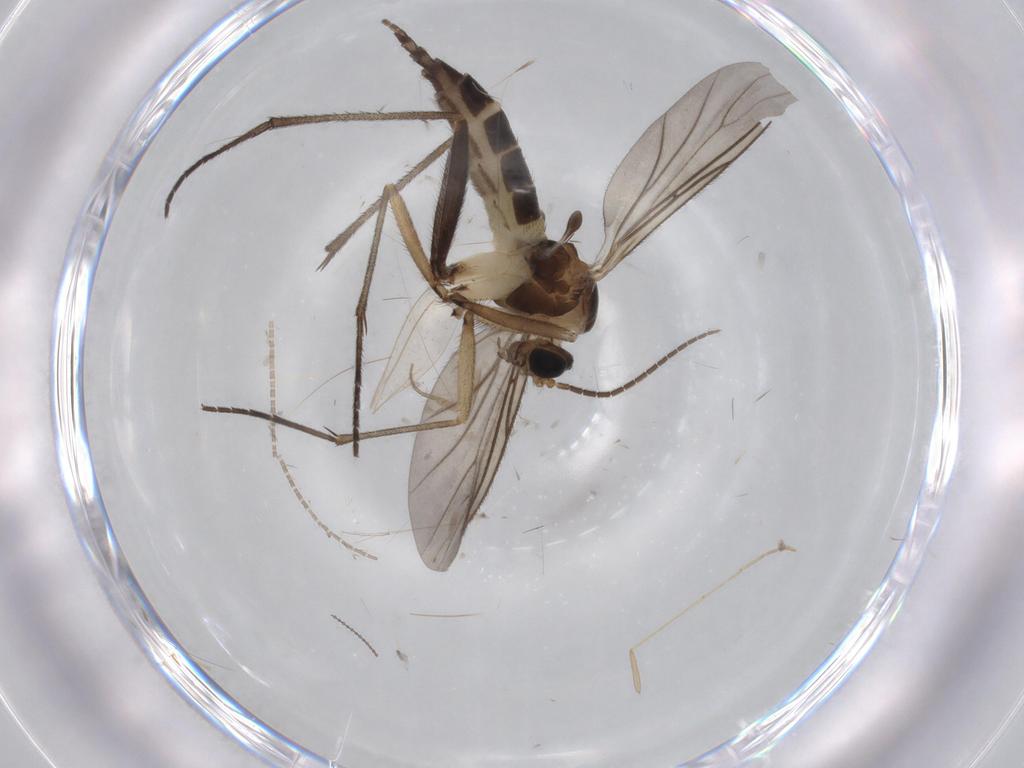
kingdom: Animalia
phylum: Arthropoda
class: Insecta
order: Diptera
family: Sciaridae
